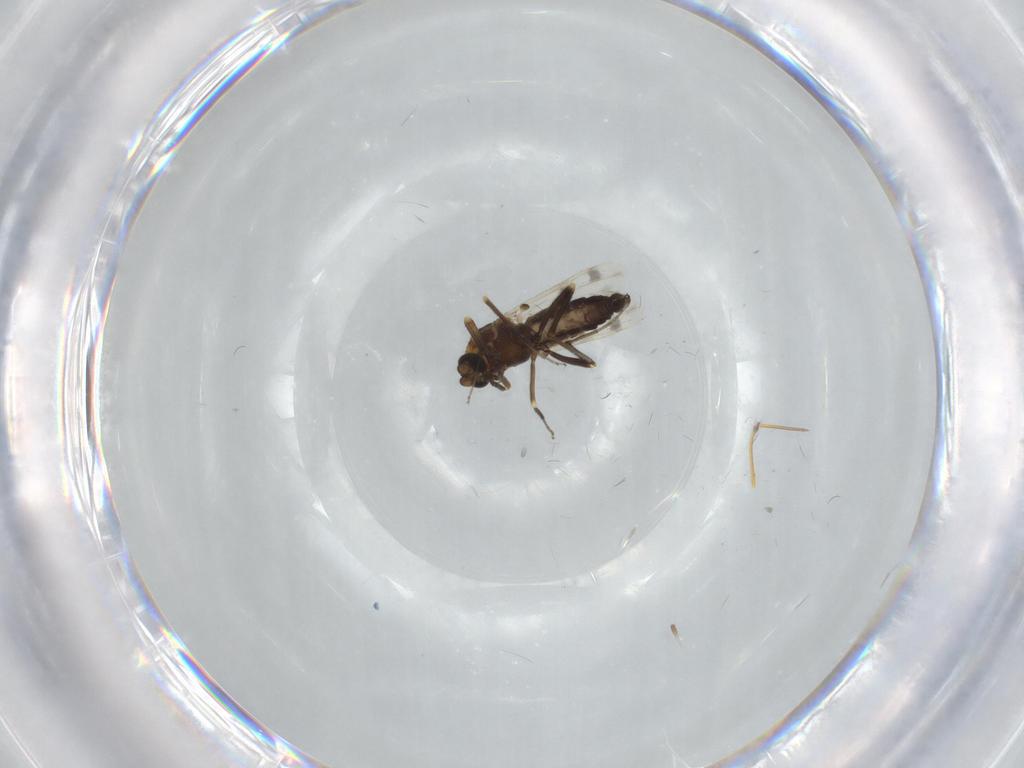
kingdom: Animalia
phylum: Arthropoda
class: Insecta
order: Diptera
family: Ceratopogonidae
